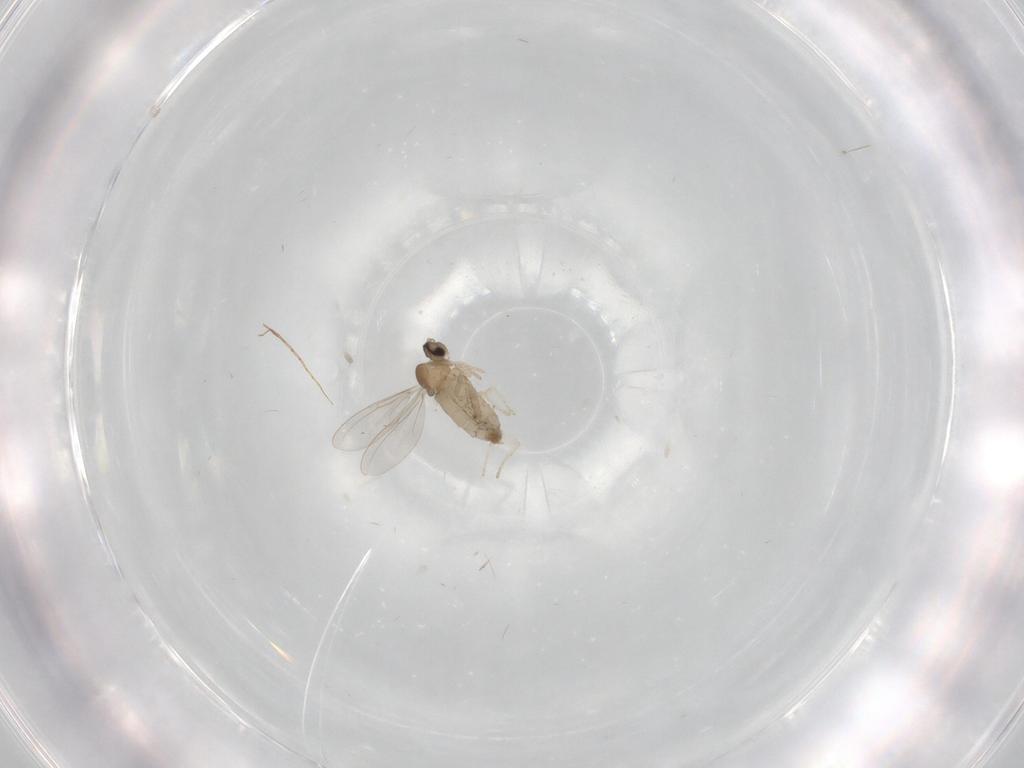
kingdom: Animalia
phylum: Arthropoda
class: Insecta
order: Diptera
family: Cecidomyiidae
